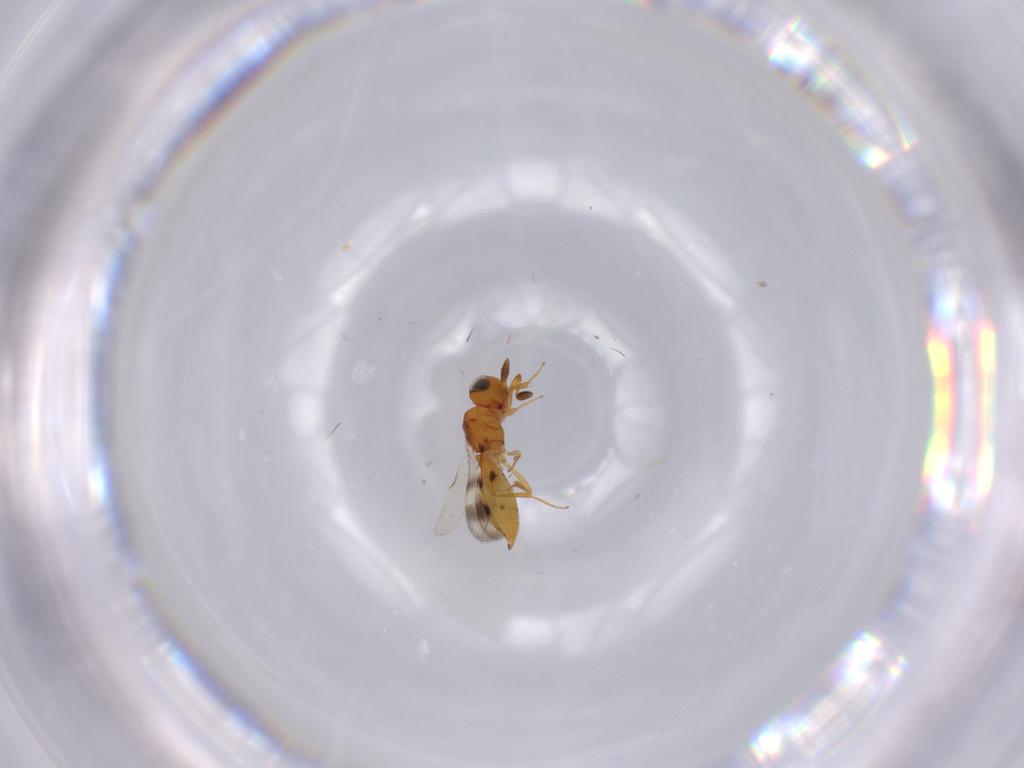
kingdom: Animalia
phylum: Arthropoda
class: Insecta
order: Hymenoptera
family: Scelionidae
